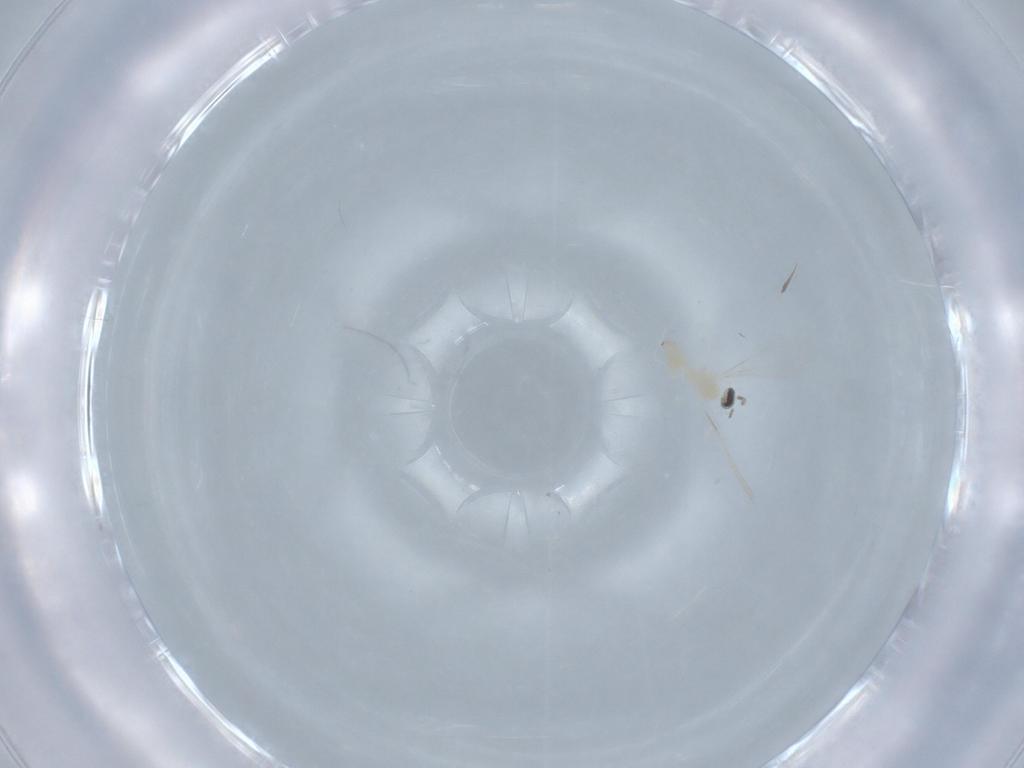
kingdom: Animalia
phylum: Arthropoda
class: Insecta
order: Diptera
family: Cecidomyiidae
